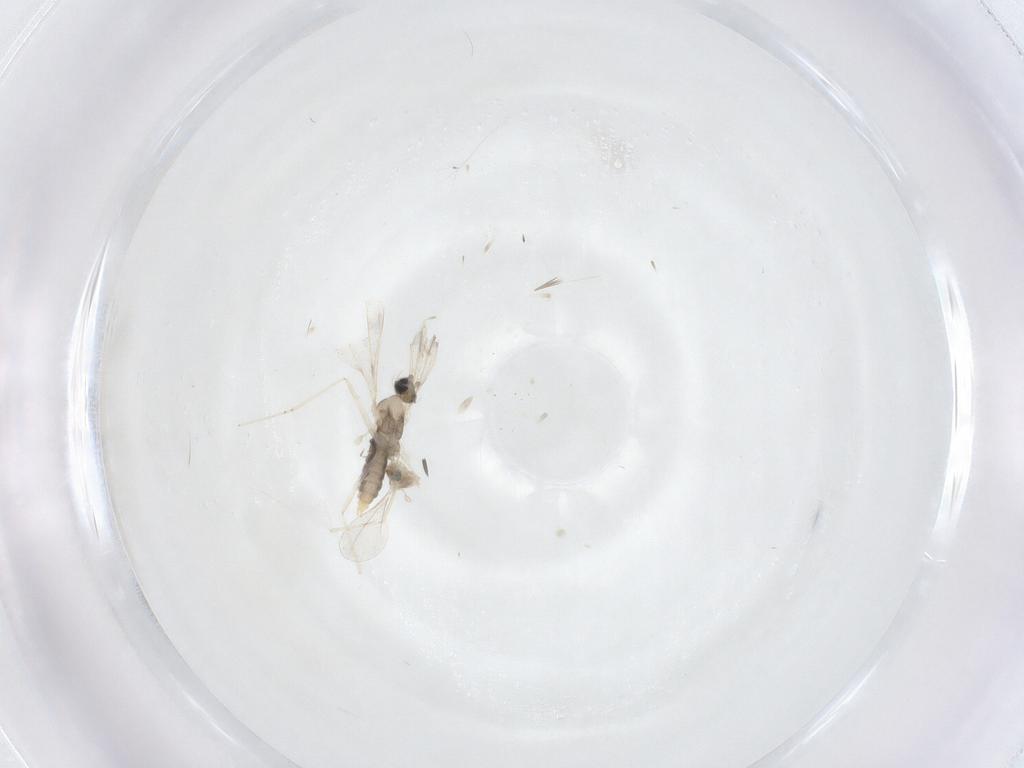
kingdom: Animalia
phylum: Arthropoda
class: Insecta
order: Diptera
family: Cecidomyiidae
